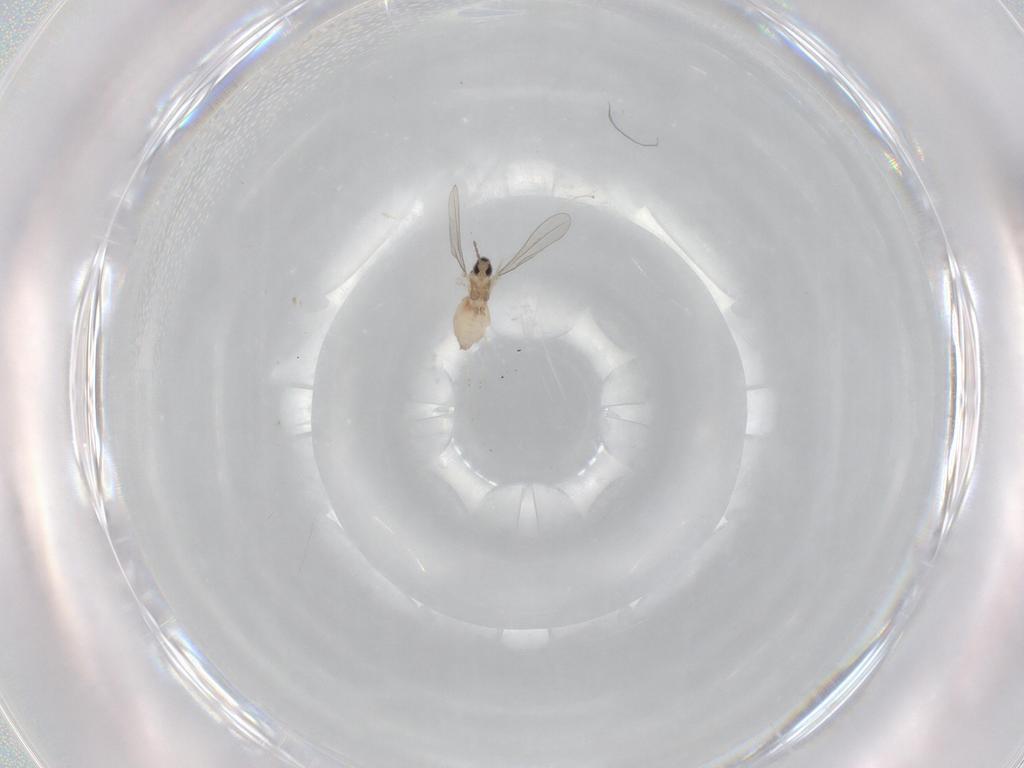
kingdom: Animalia
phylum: Arthropoda
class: Insecta
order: Diptera
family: Cecidomyiidae
